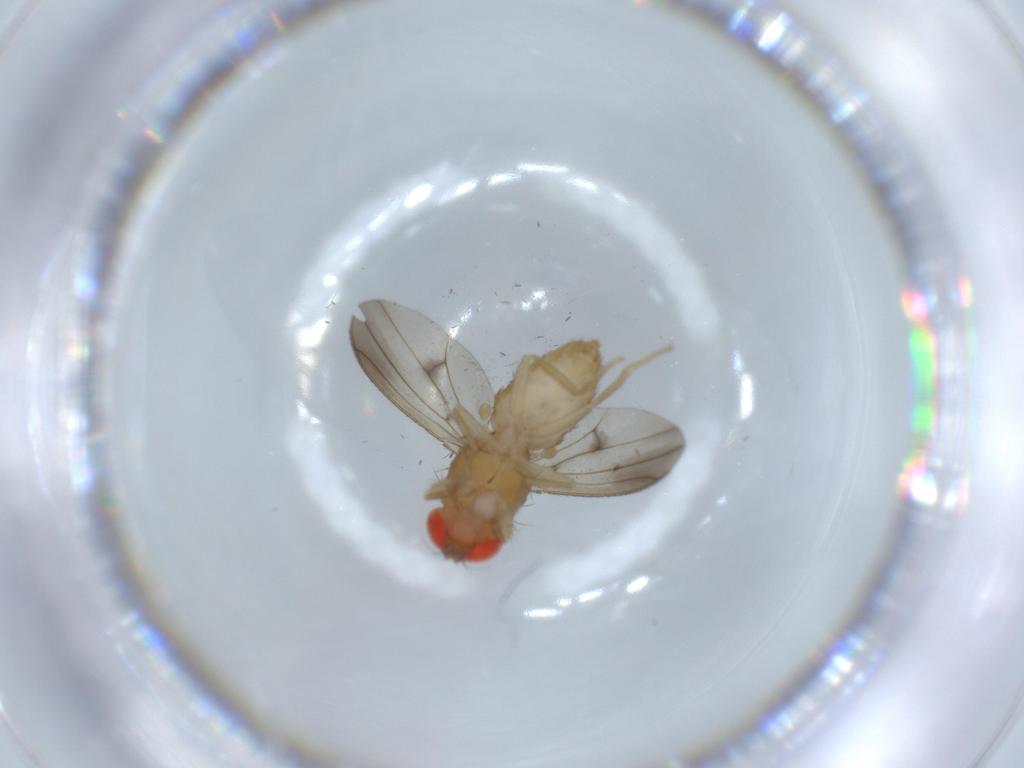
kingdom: Animalia
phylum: Arthropoda
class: Insecta
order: Diptera
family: Drosophilidae
